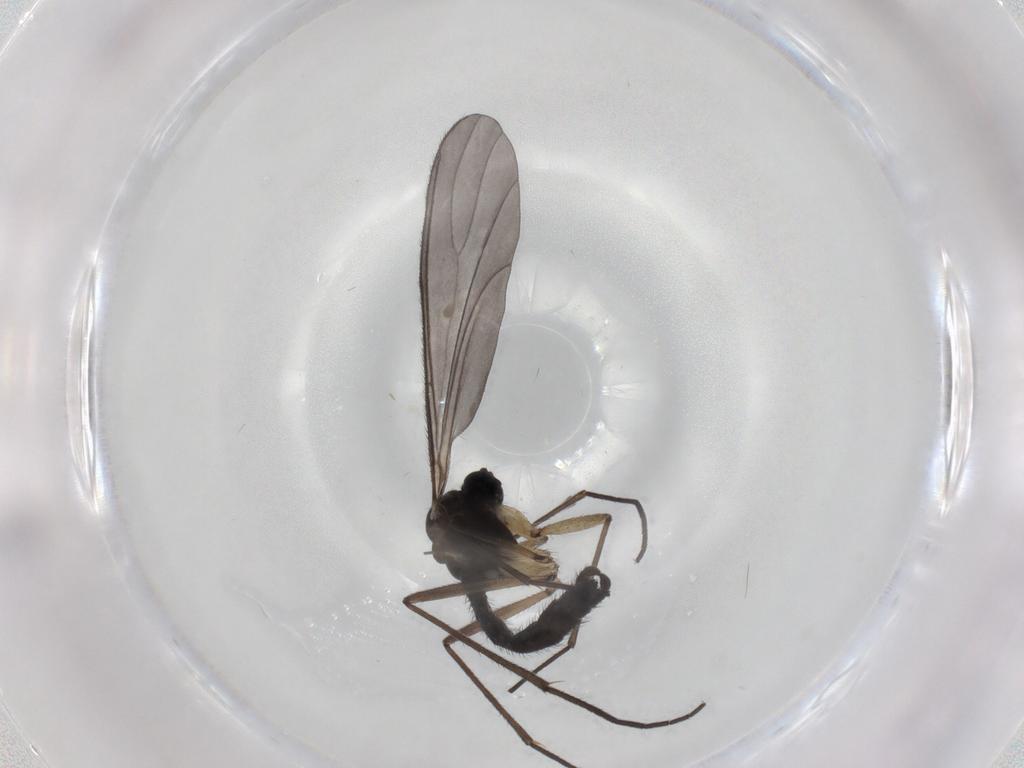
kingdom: Animalia
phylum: Arthropoda
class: Insecta
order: Diptera
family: Sciaridae
